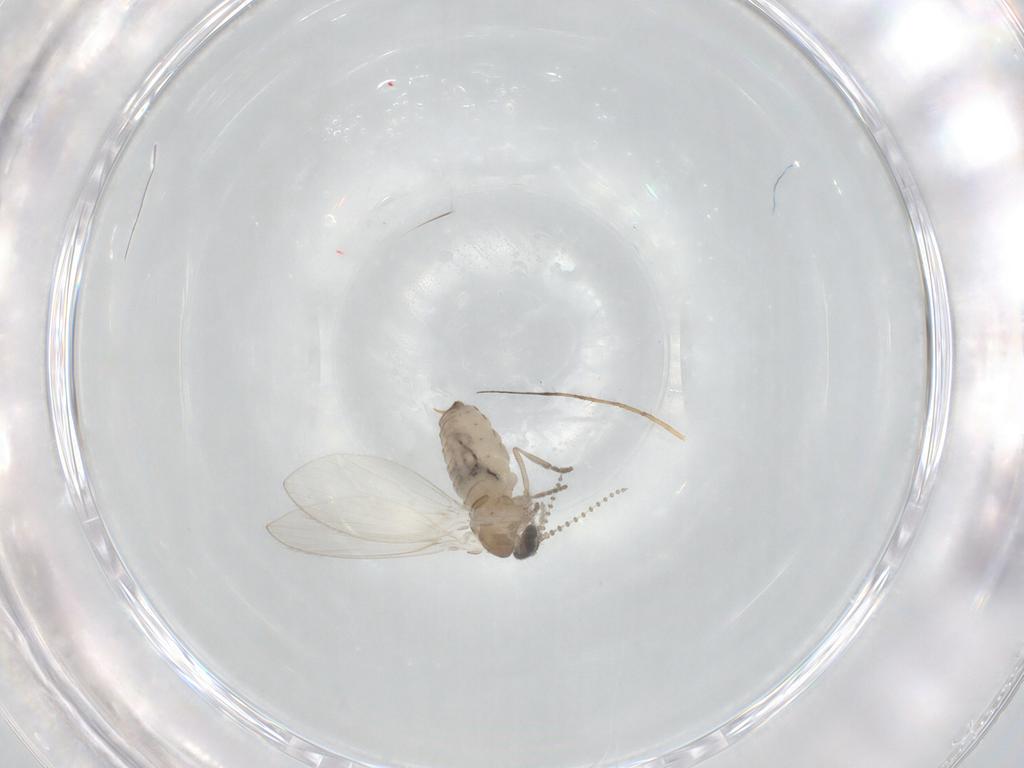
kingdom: Animalia
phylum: Arthropoda
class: Insecta
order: Diptera
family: Psychodidae
